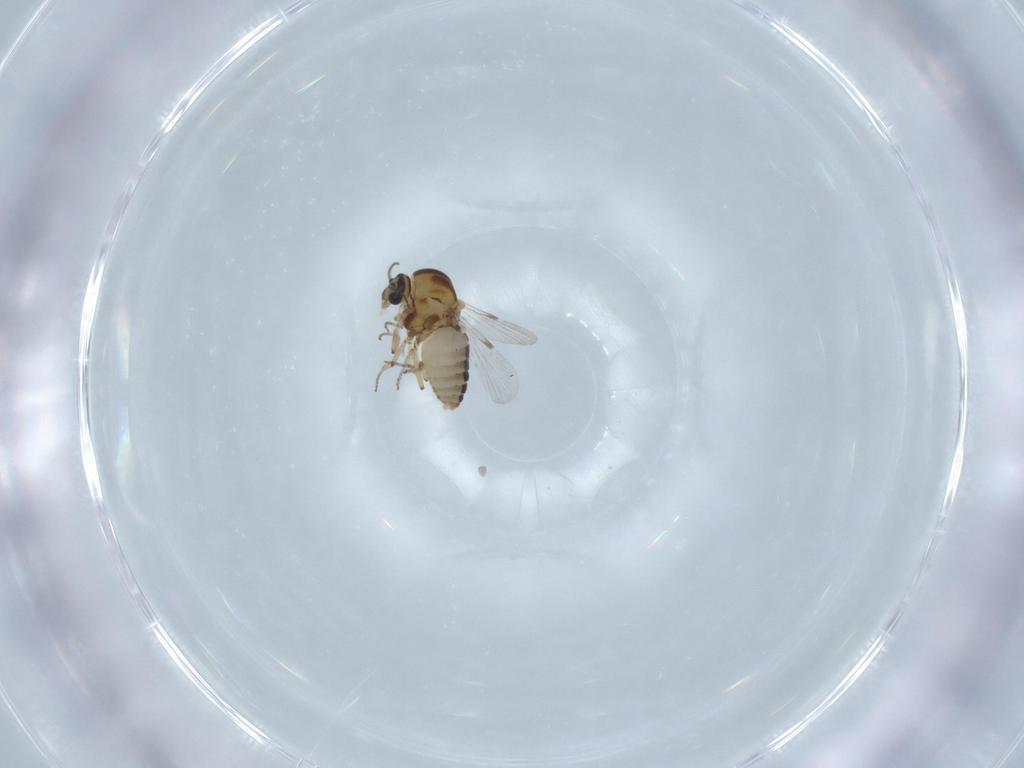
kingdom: Animalia
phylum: Arthropoda
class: Insecta
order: Diptera
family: Ceratopogonidae
